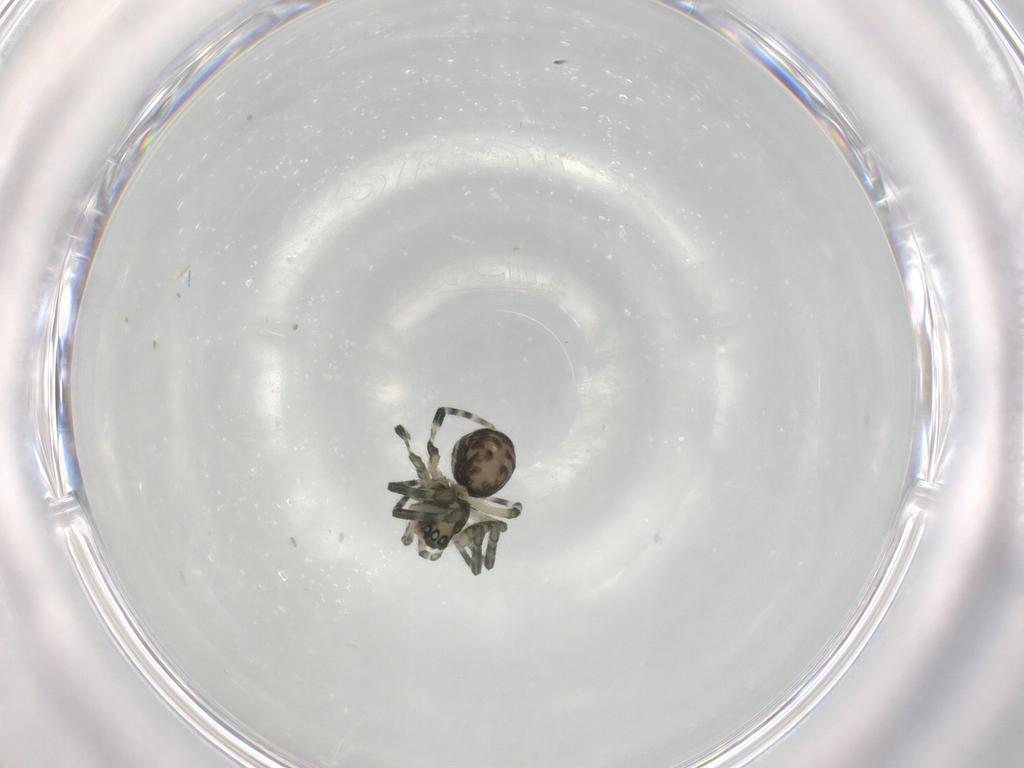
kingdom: Animalia
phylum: Arthropoda
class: Arachnida
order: Araneae
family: Linyphiidae
